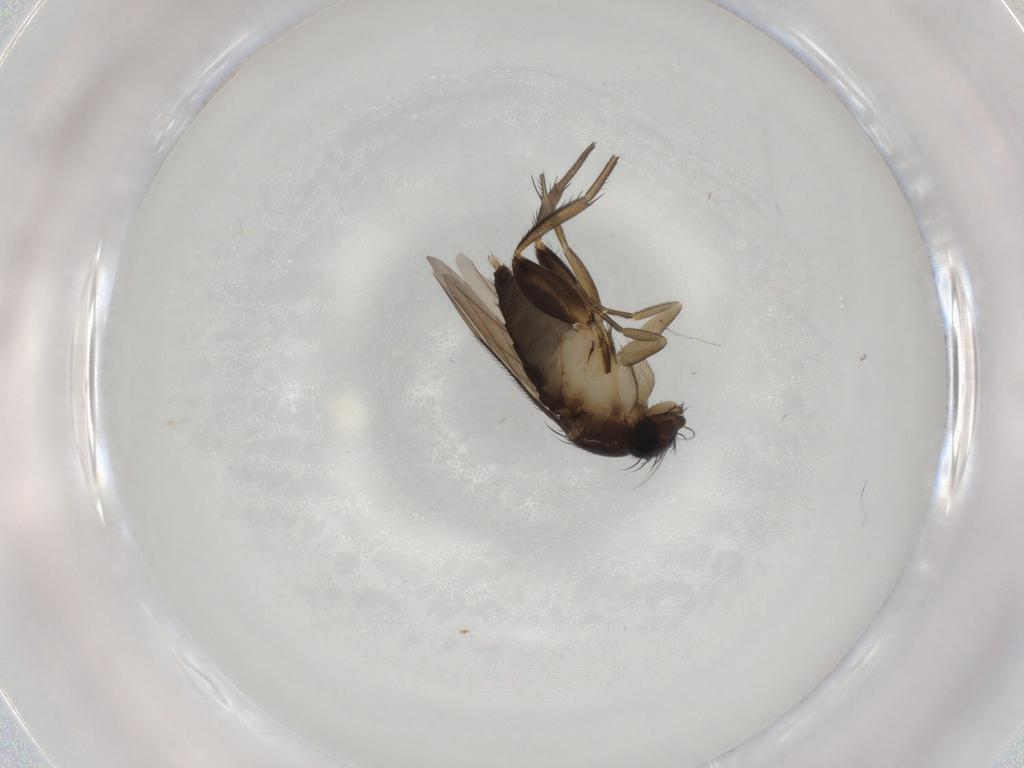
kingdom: Animalia
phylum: Arthropoda
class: Insecta
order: Diptera
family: Phoridae
